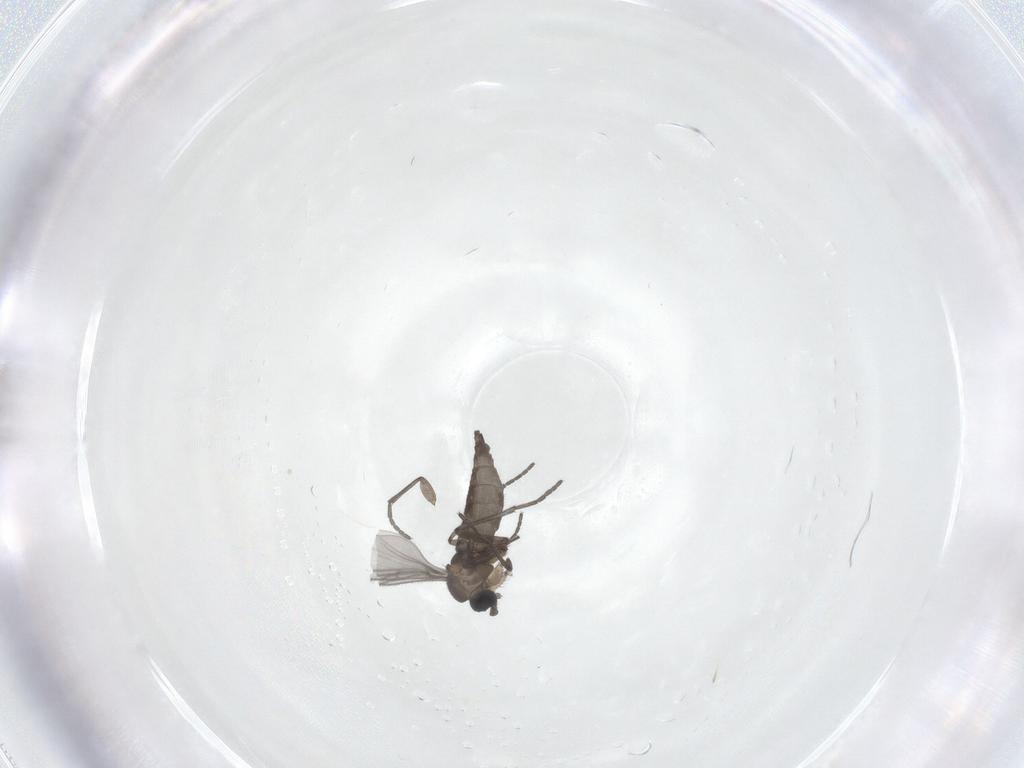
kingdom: Animalia
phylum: Arthropoda
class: Insecta
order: Diptera
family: Sciaridae
